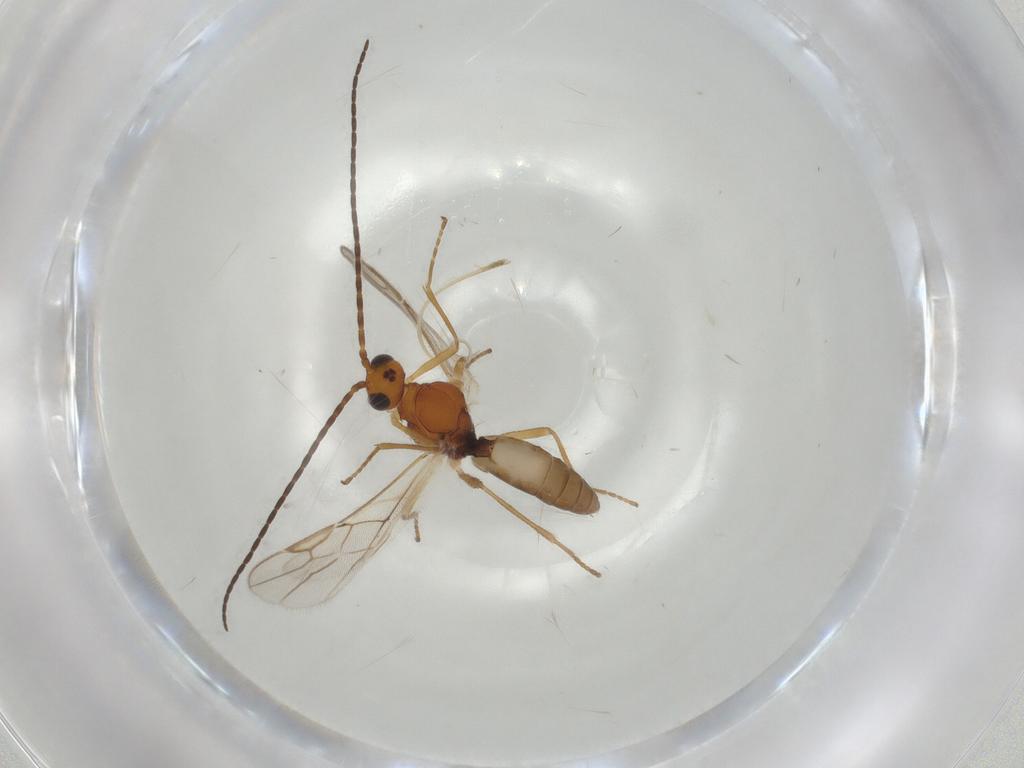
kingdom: Animalia
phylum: Arthropoda
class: Insecta
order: Hymenoptera
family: Braconidae
